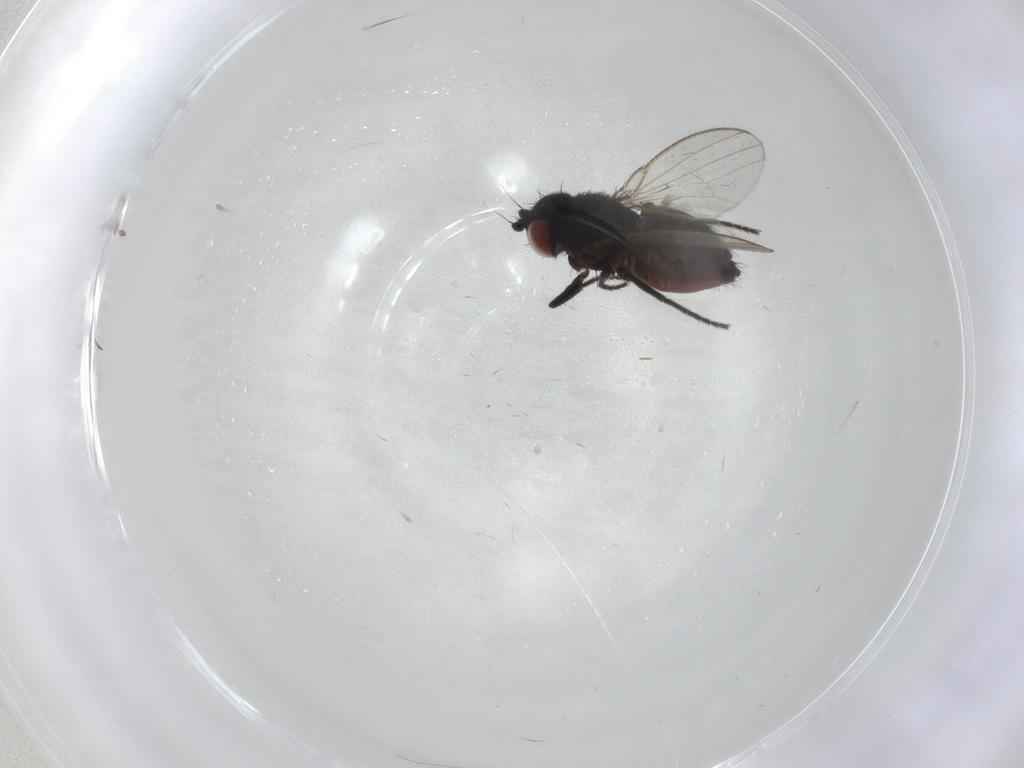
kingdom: Animalia
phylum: Arthropoda
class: Insecta
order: Diptera
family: Milichiidae
